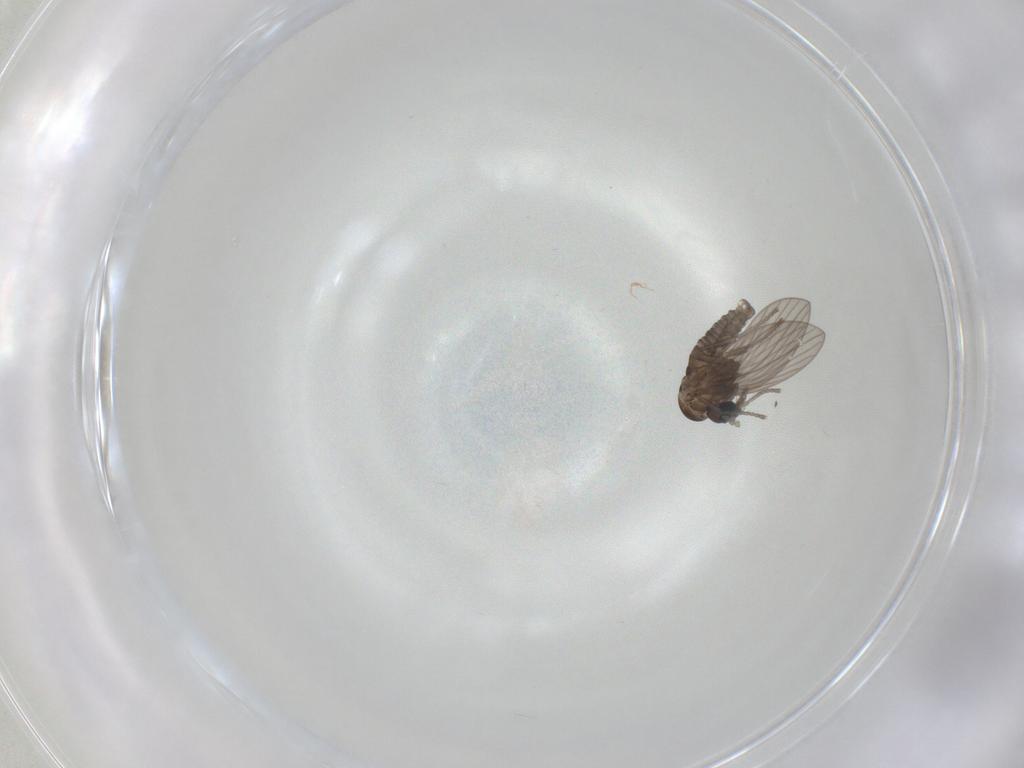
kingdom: Animalia
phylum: Arthropoda
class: Insecta
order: Diptera
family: Psychodidae
